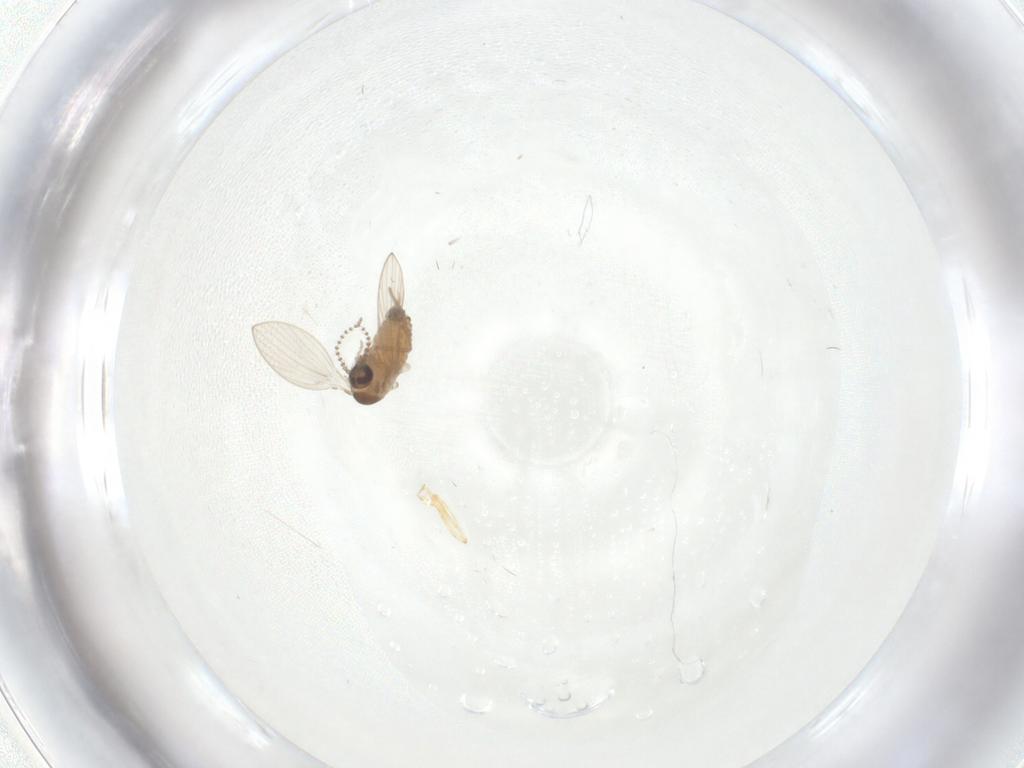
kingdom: Animalia
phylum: Arthropoda
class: Insecta
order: Diptera
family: Psychodidae
